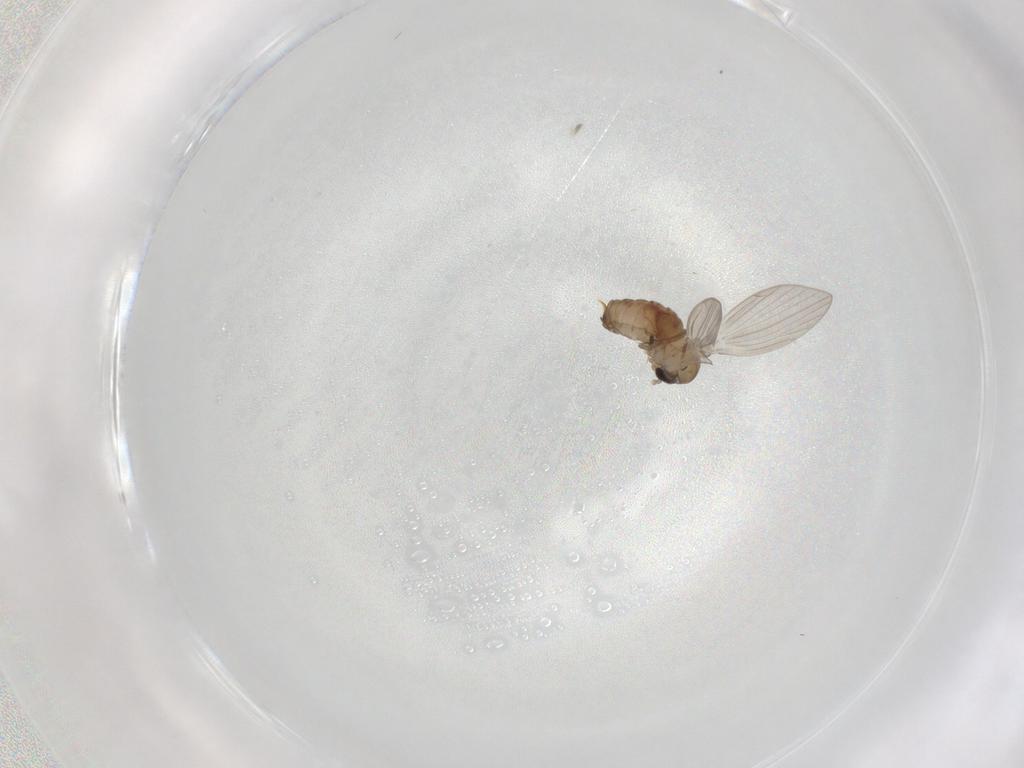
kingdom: Animalia
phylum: Arthropoda
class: Insecta
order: Diptera
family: Psychodidae
